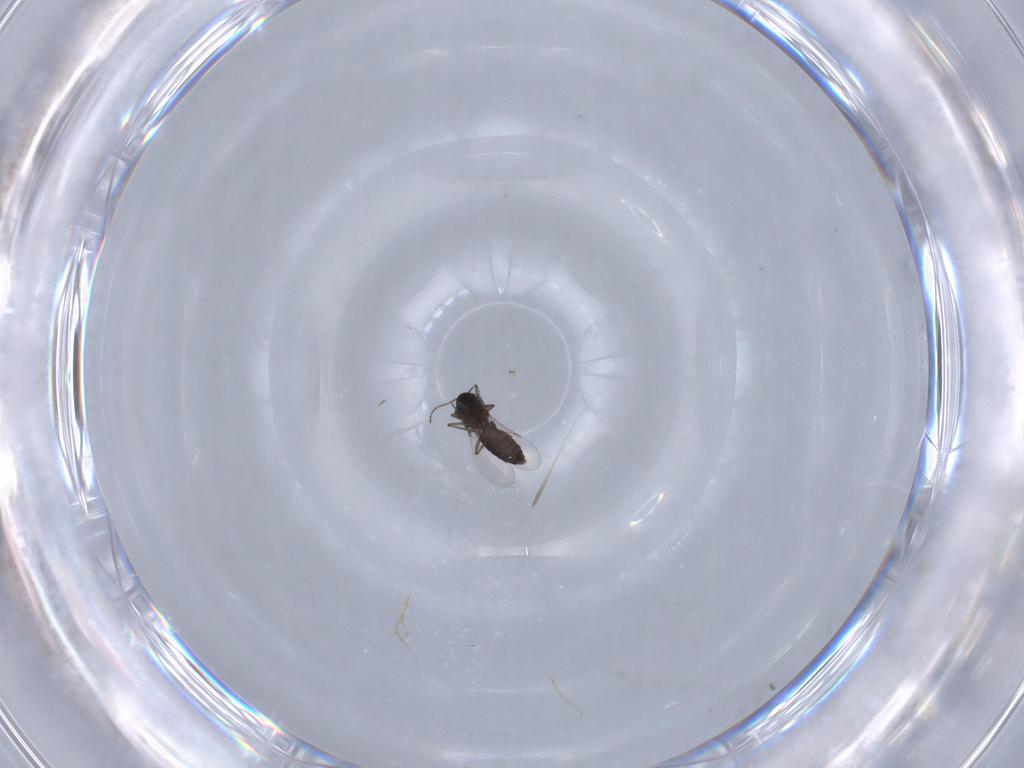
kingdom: Animalia
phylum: Arthropoda
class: Insecta
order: Diptera
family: Ceratopogonidae
